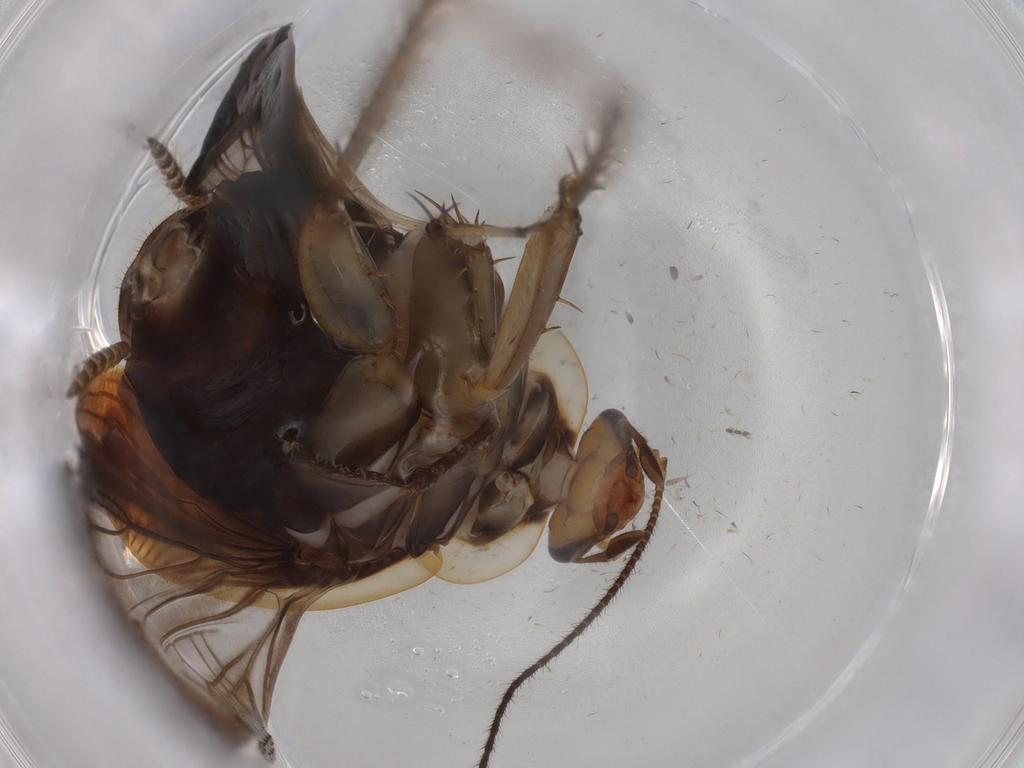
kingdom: Animalia
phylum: Arthropoda
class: Insecta
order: Blattodea
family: Ectobiidae
